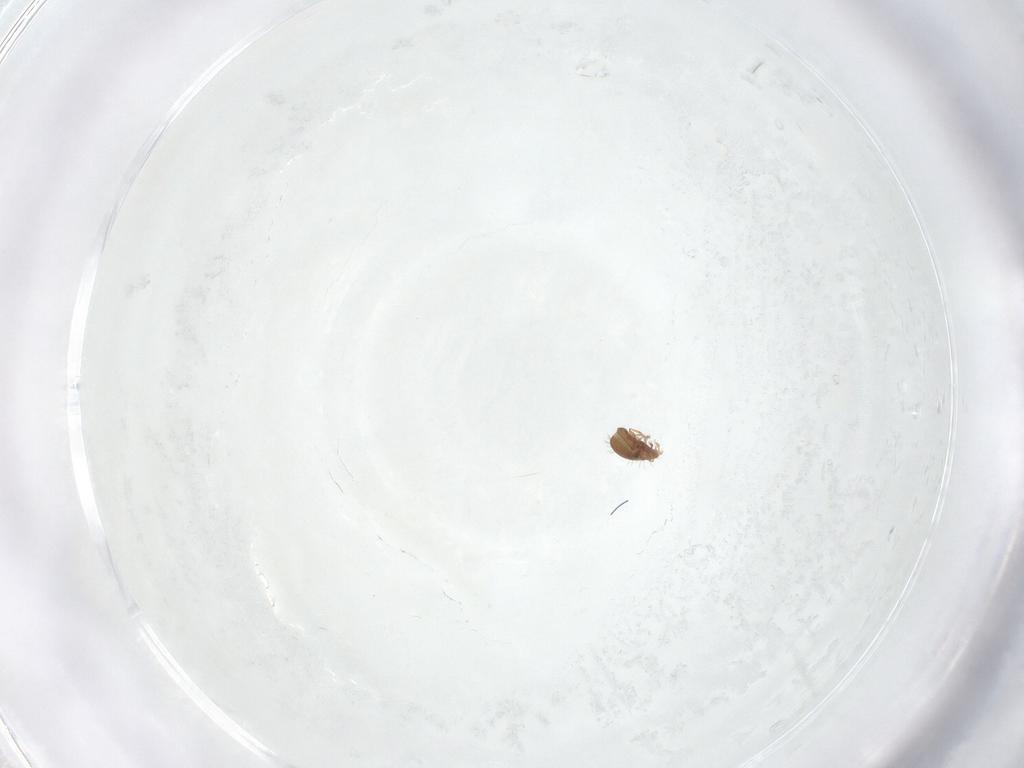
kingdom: Animalia
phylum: Arthropoda
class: Arachnida
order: Sarcoptiformes
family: Oribatulidae
